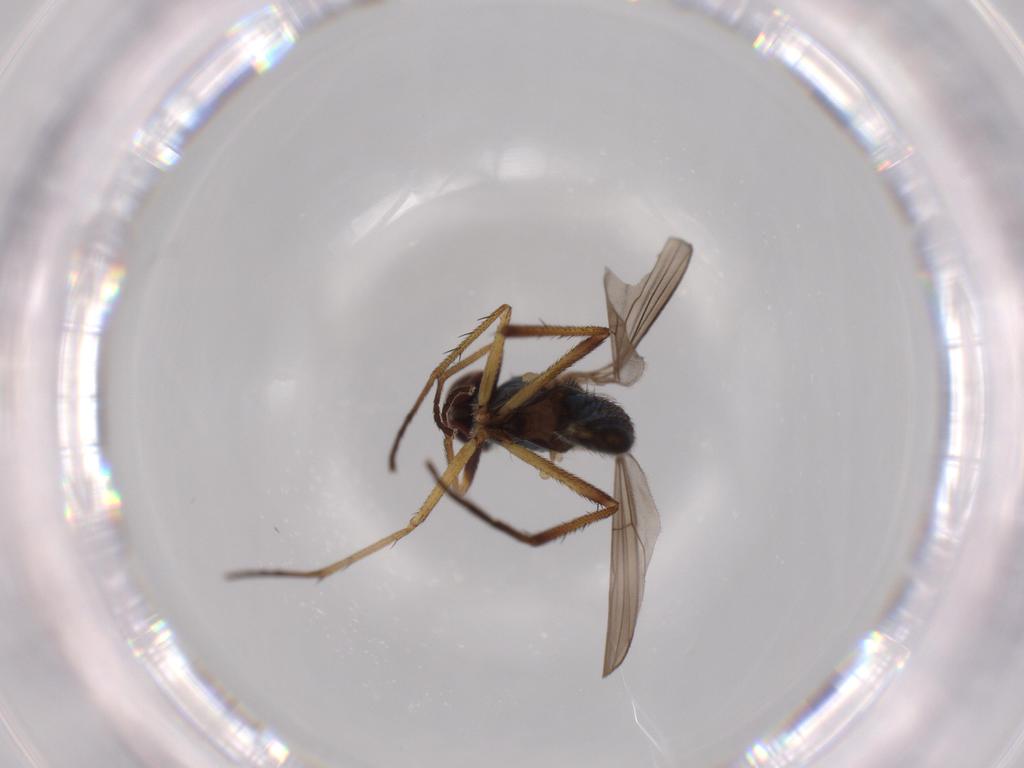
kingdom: Animalia
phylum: Arthropoda
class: Insecta
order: Diptera
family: Dolichopodidae
